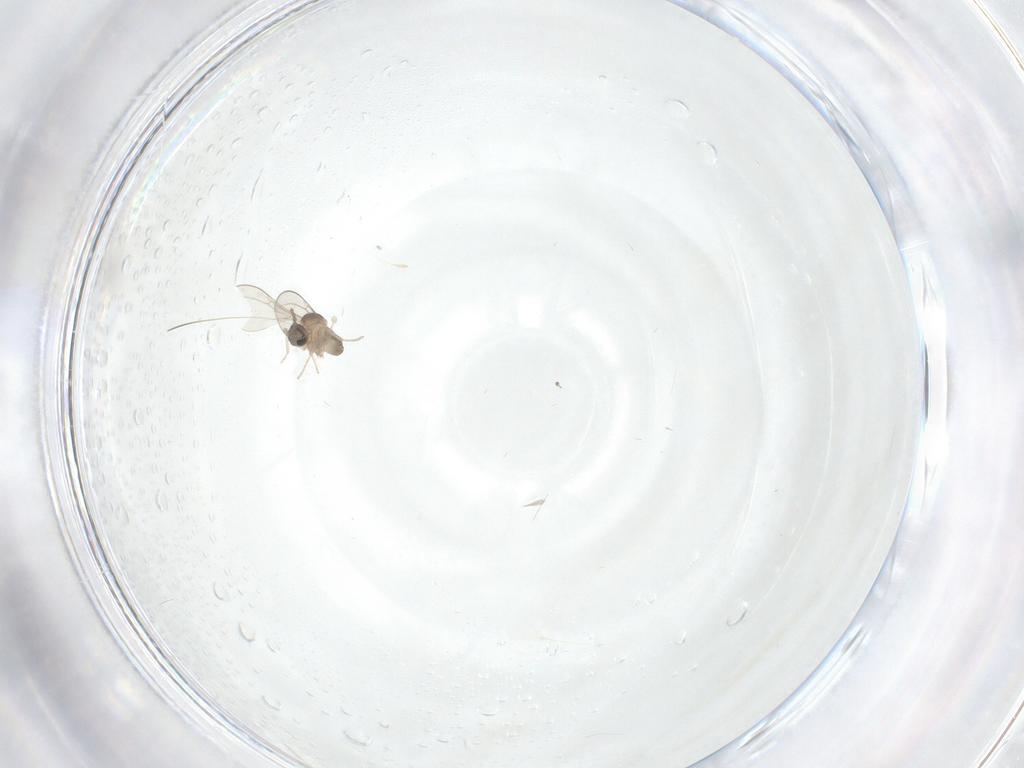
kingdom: Animalia
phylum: Arthropoda
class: Insecta
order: Diptera
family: Cecidomyiidae
